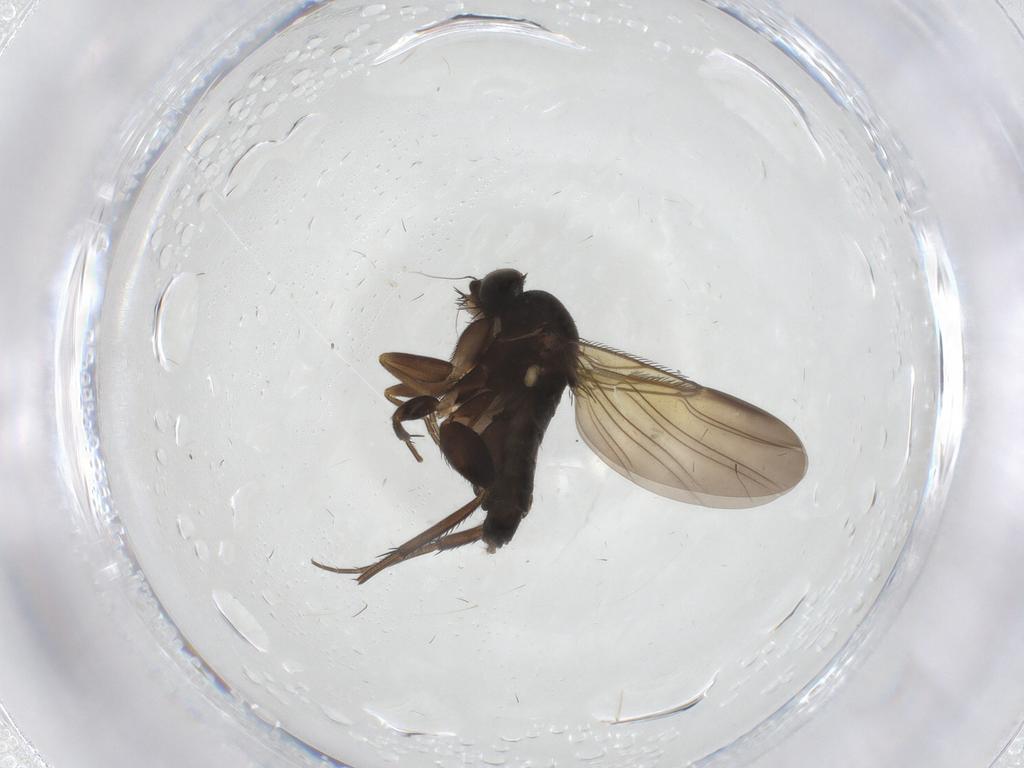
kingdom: Animalia
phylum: Arthropoda
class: Insecta
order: Diptera
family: Phoridae
